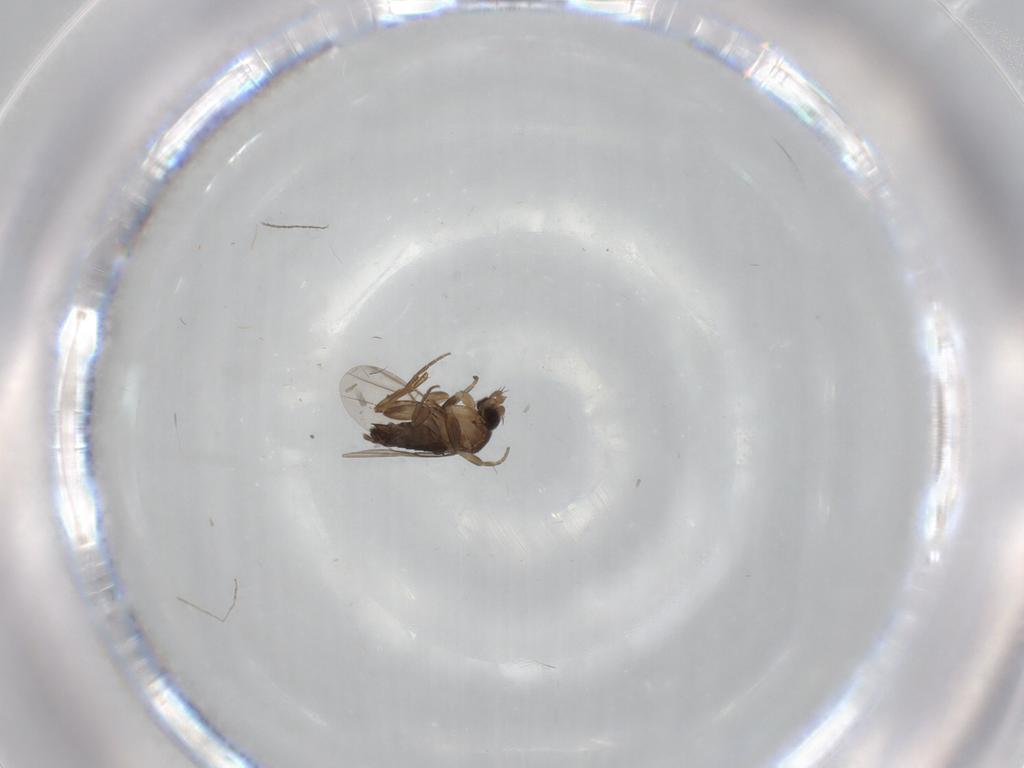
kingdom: Animalia
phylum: Arthropoda
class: Insecta
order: Diptera
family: Phoridae
